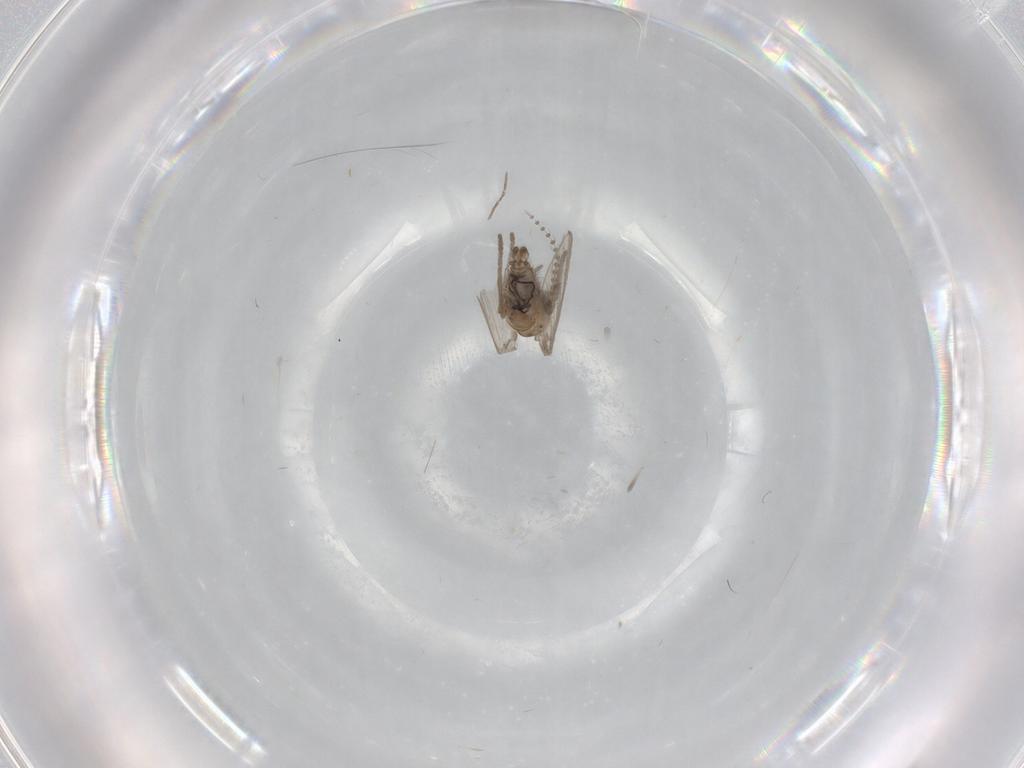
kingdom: Animalia
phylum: Arthropoda
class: Insecta
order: Diptera
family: Psychodidae
